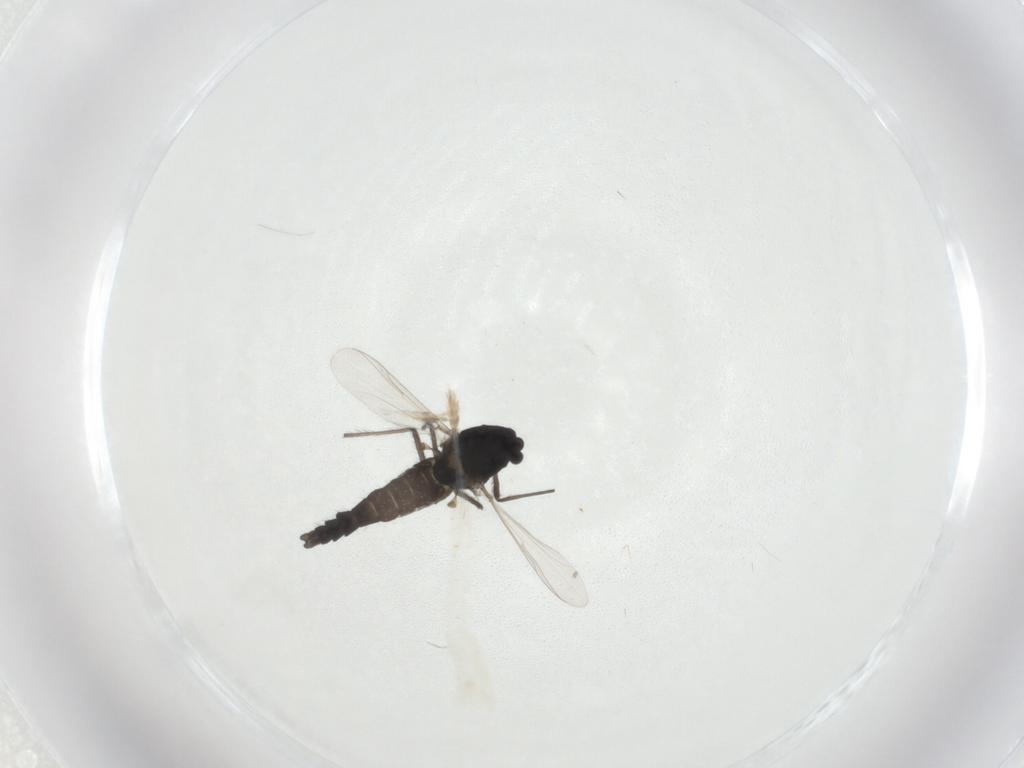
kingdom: Animalia
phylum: Arthropoda
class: Insecta
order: Diptera
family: Chironomidae
